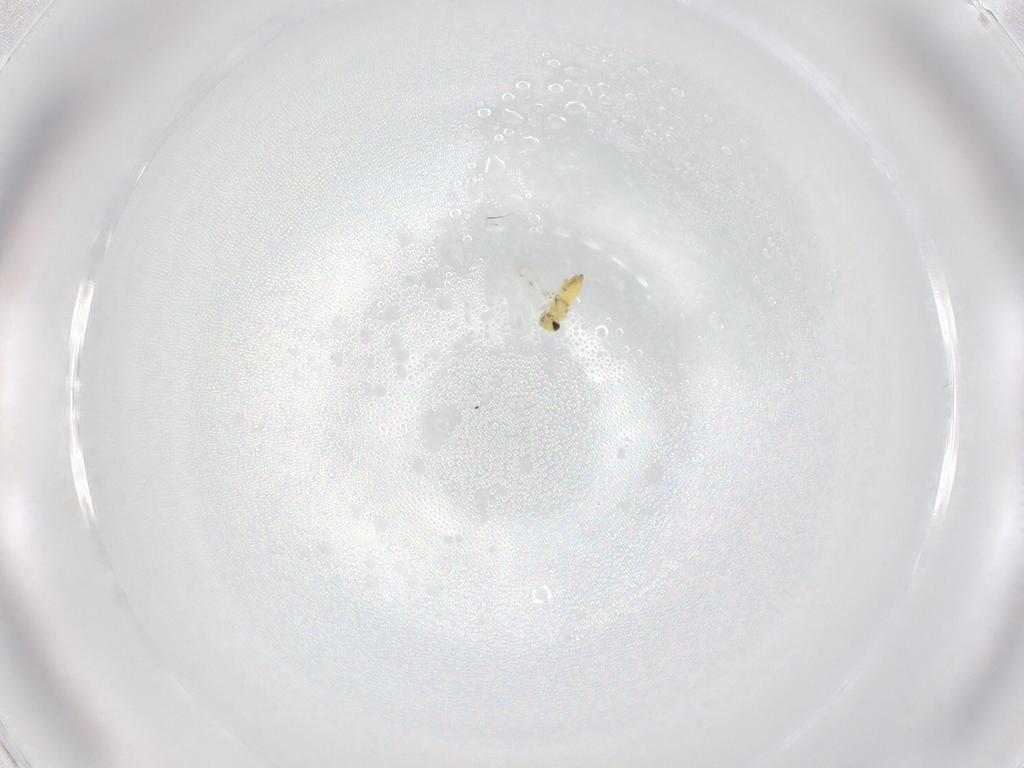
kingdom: Animalia
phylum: Arthropoda
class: Insecta
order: Hymenoptera
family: Trichogrammatidae
